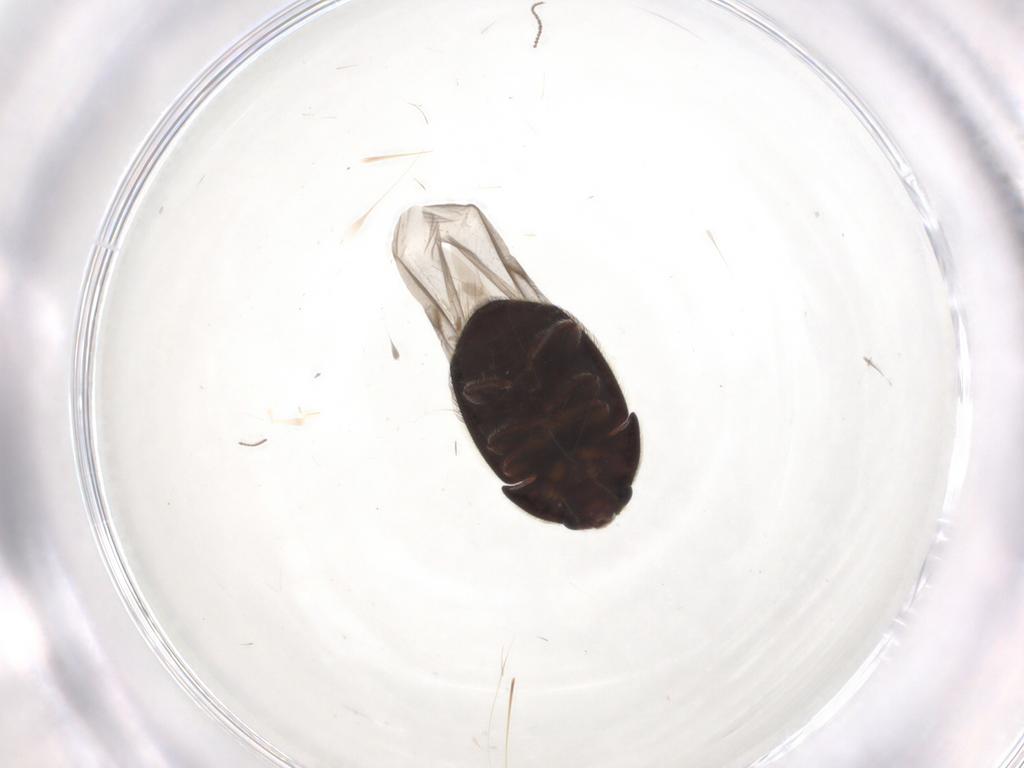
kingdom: Animalia
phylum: Arthropoda
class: Insecta
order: Coleoptera
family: Nitidulidae
